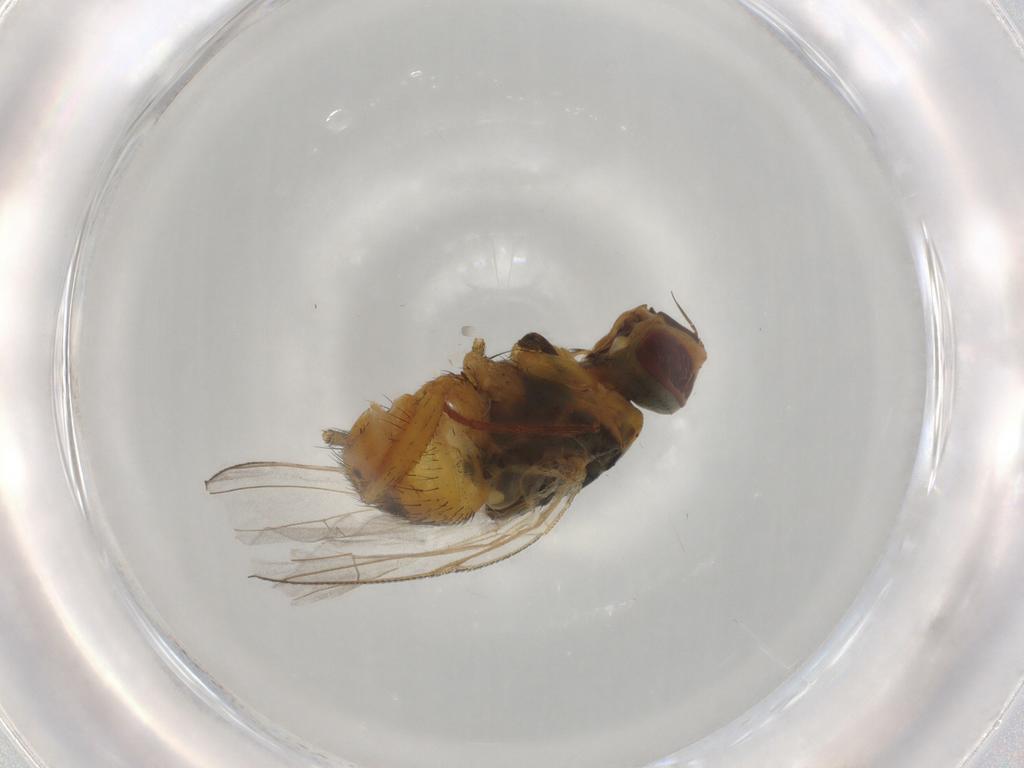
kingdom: Animalia
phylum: Arthropoda
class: Insecta
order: Diptera
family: Muscidae
